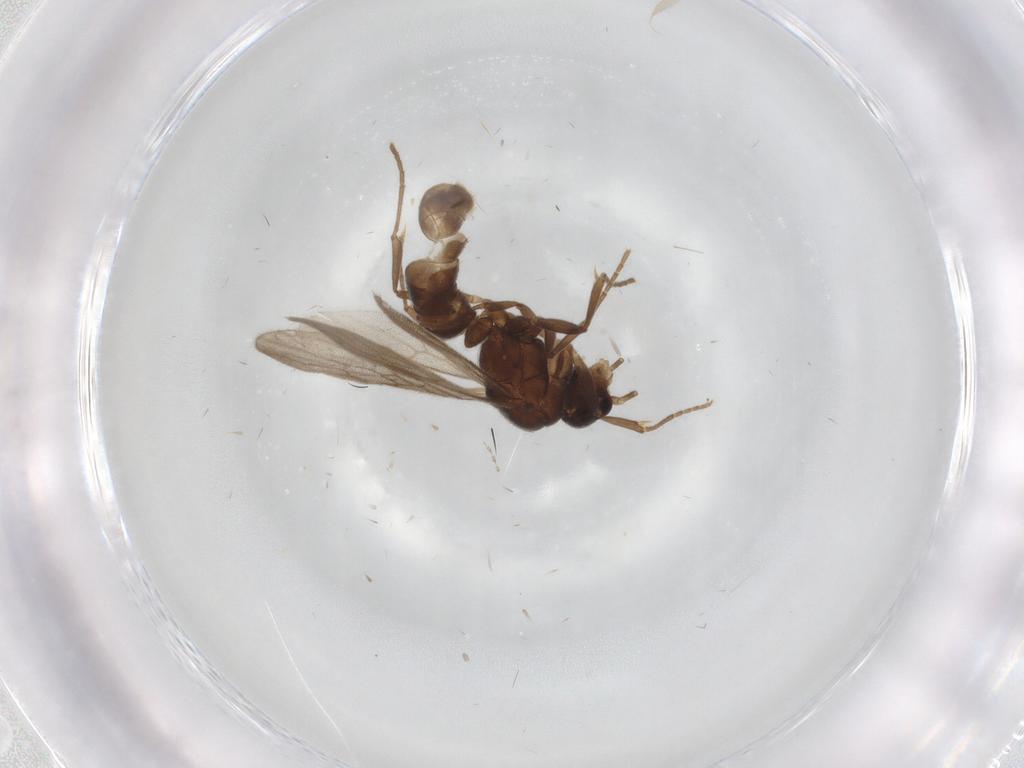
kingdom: Animalia
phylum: Arthropoda
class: Insecta
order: Hymenoptera
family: Formicidae
